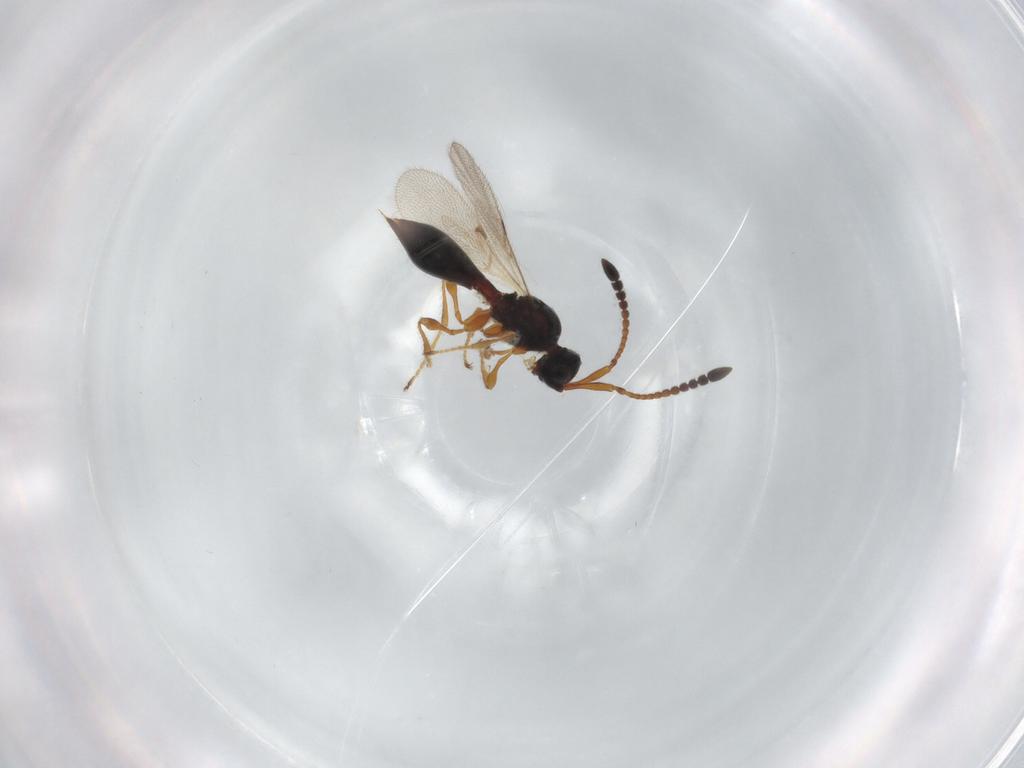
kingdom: Animalia
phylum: Arthropoda
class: Insecta
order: Hymenoptera
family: Diapriidae
